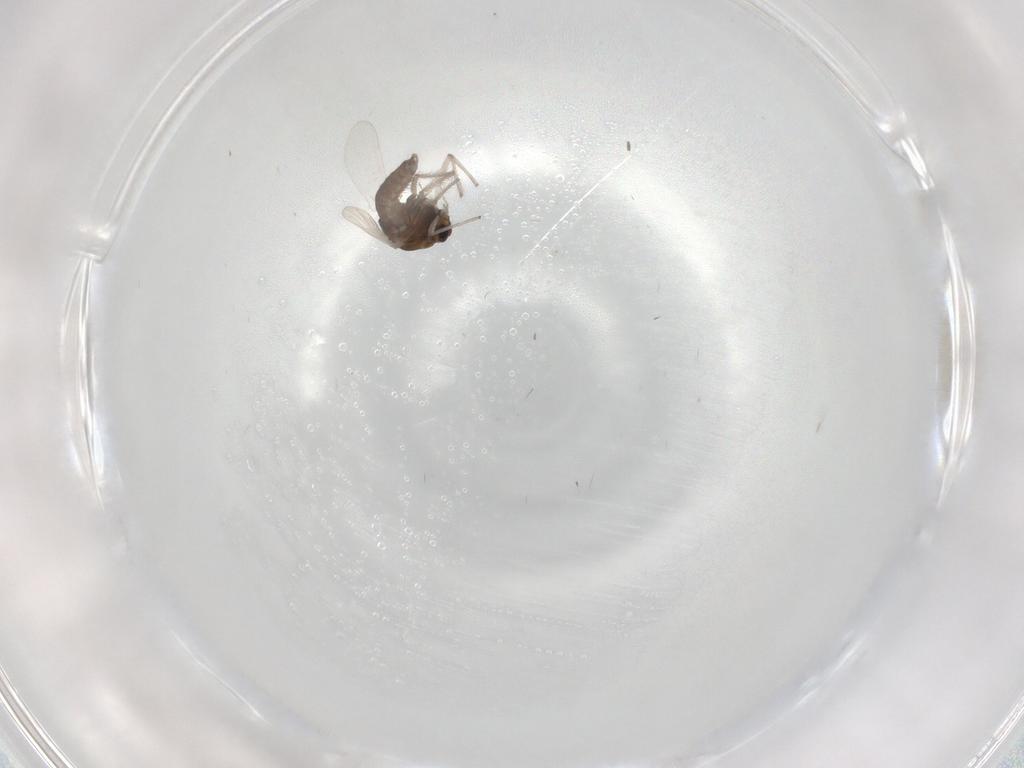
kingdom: Animalia
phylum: Arthropoda
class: Insecta
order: Diptera
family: Chironomidae
